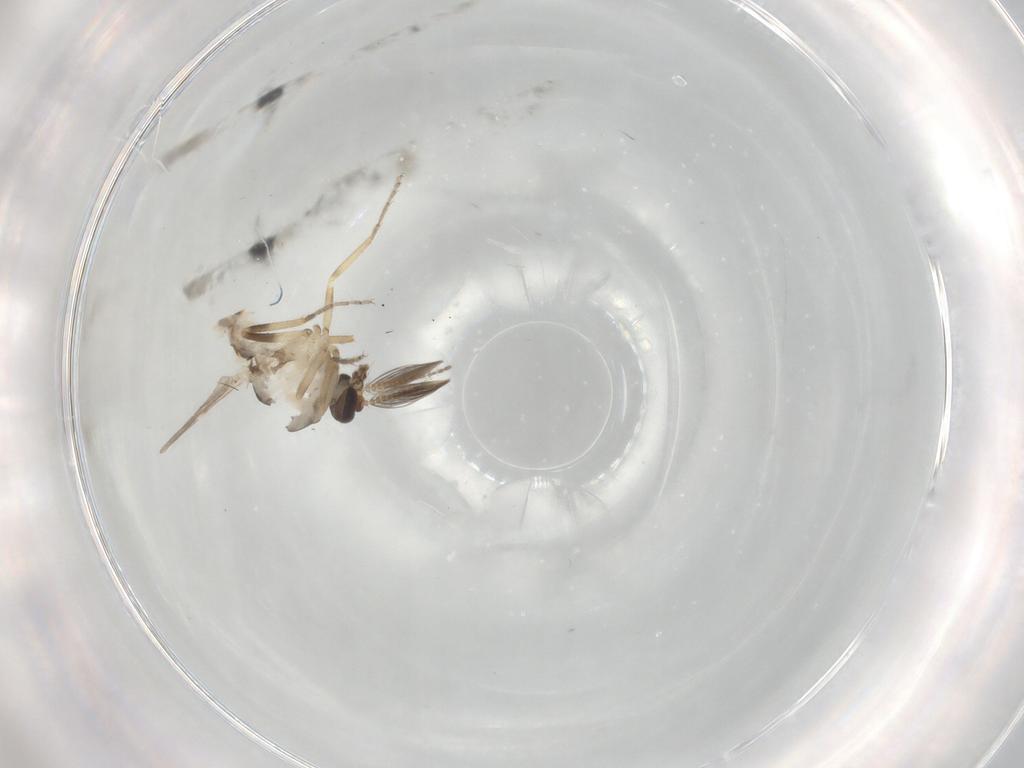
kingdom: Animalia
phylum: Arthropoda
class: Insecta
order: Diptera
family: Ceratopogonidae
